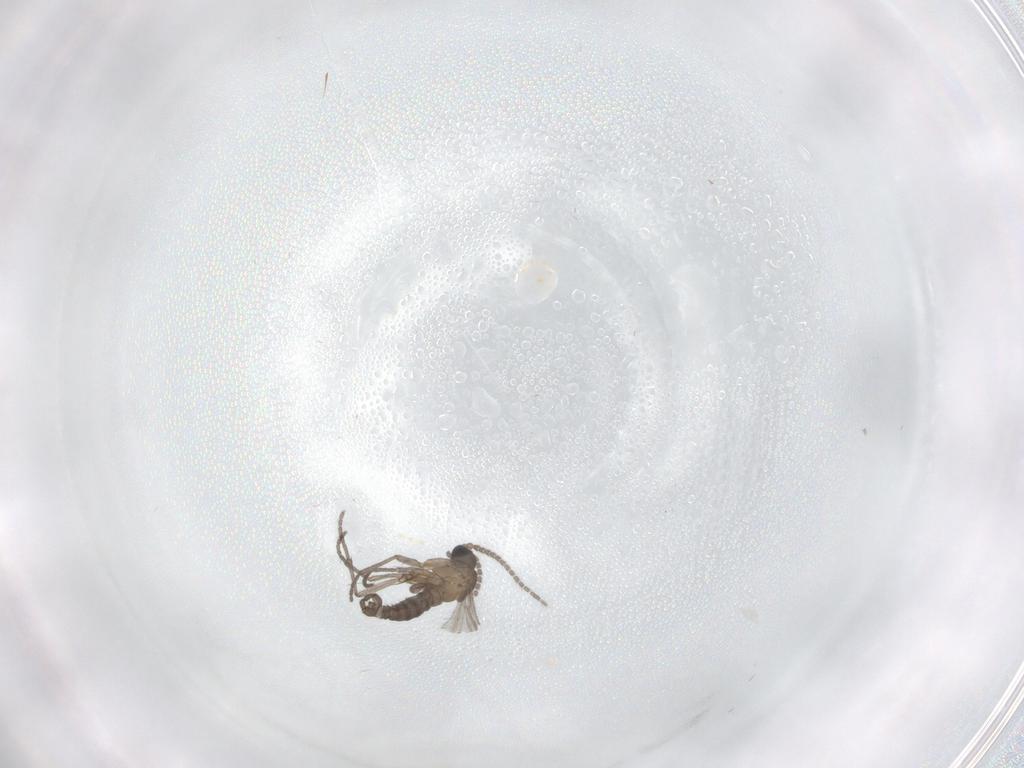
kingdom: Animalia
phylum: Arthropoda
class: Insecta
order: Diptera
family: Sciaridae
